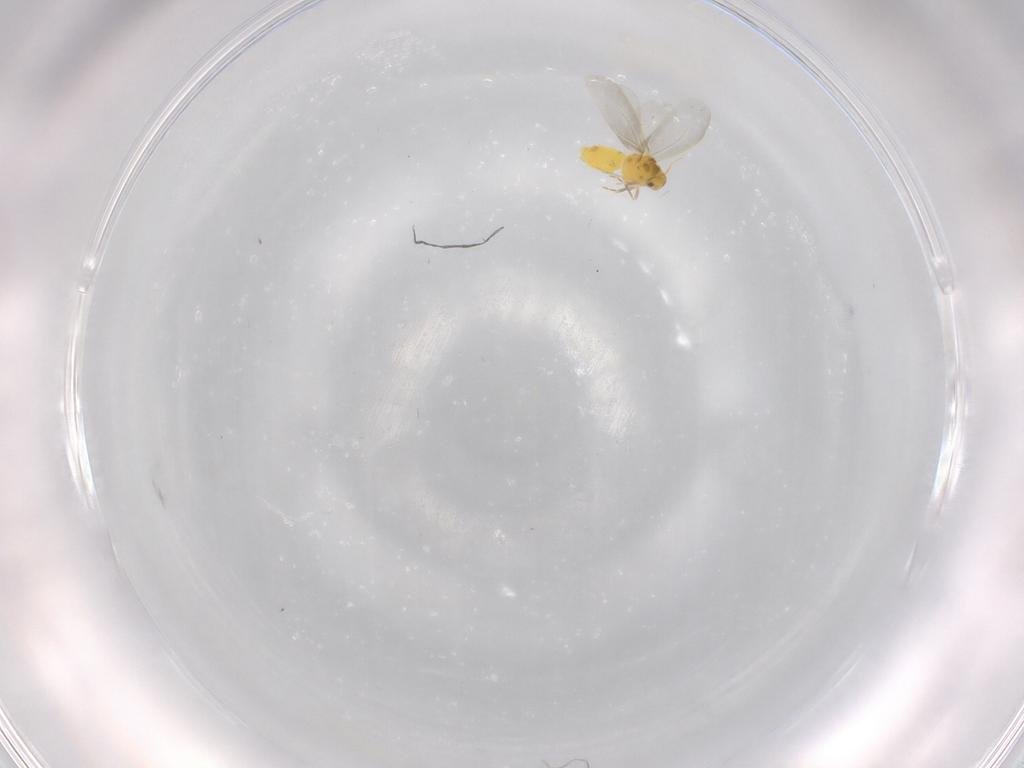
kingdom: Animalia
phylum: Arthropoda
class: Insecta
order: Hemiptera
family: Aleyrodidae
